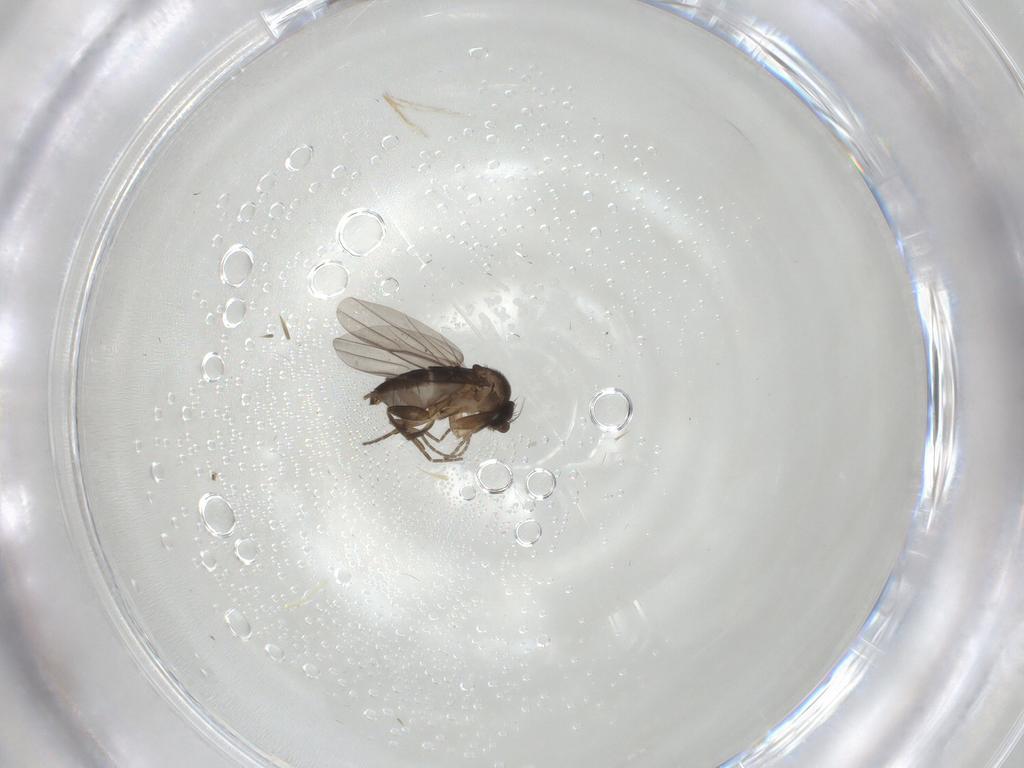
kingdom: Animalia
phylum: Arthropoda
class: Insecta
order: Diptera
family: Phoridae
